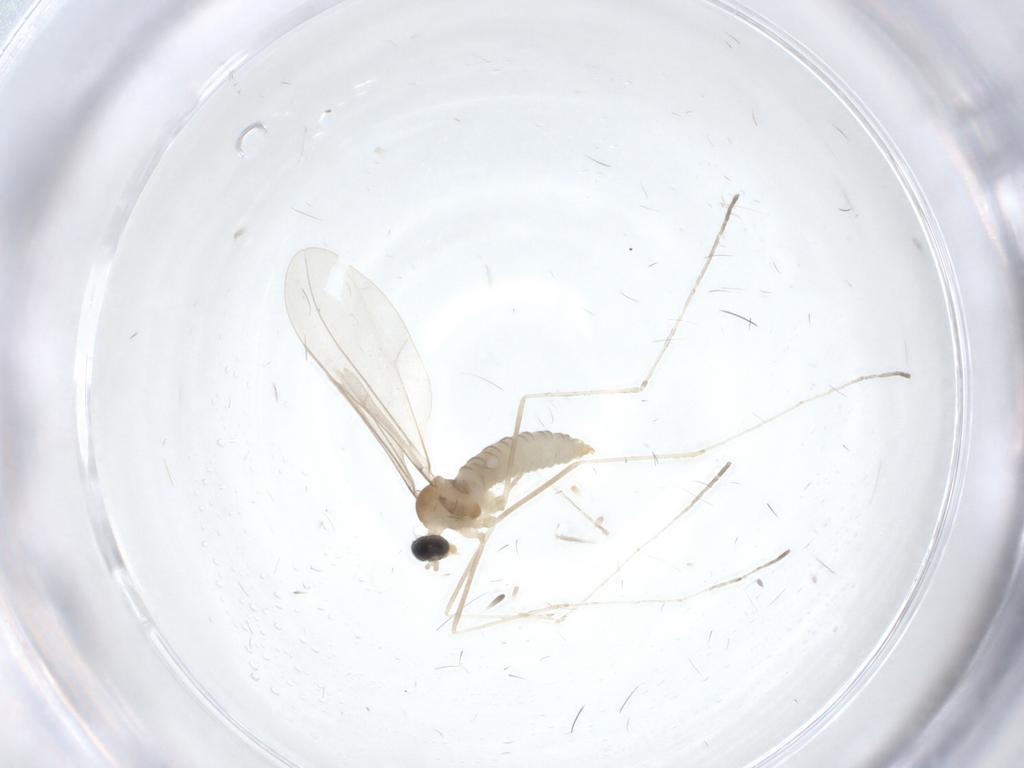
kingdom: Animalia
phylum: Arthropoda
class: Insecta
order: Diptera
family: Cecidomyiidae
